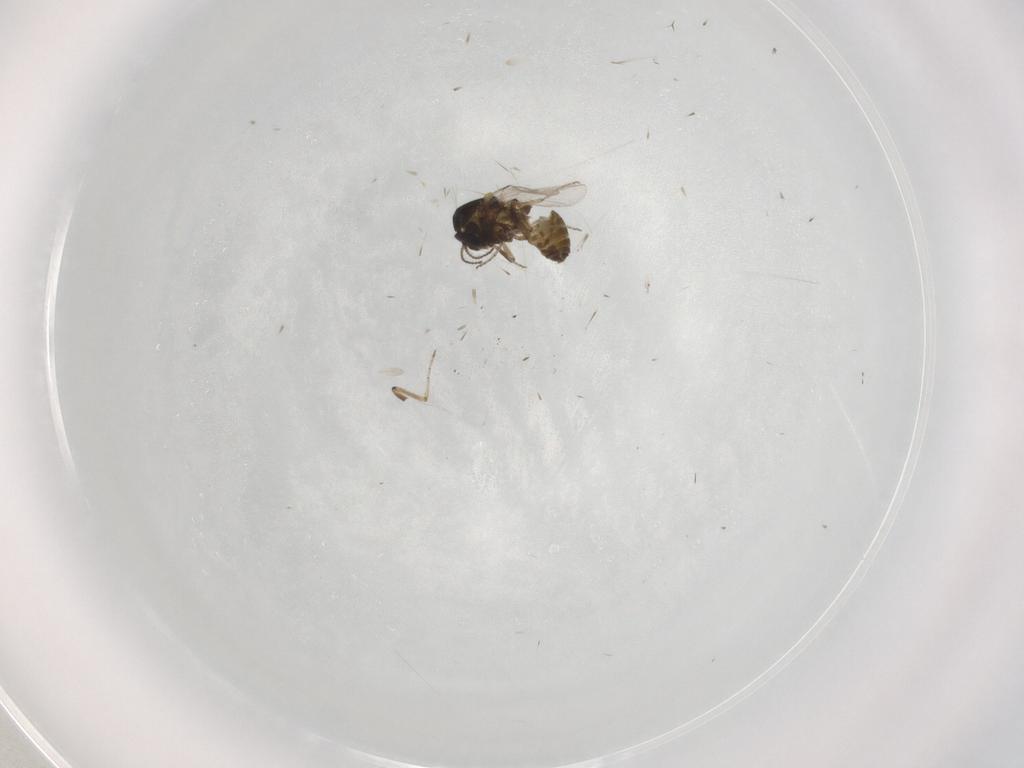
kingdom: Animalia
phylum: Arthropoda
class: Insecta
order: Diptera
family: Ceratopogonidae
